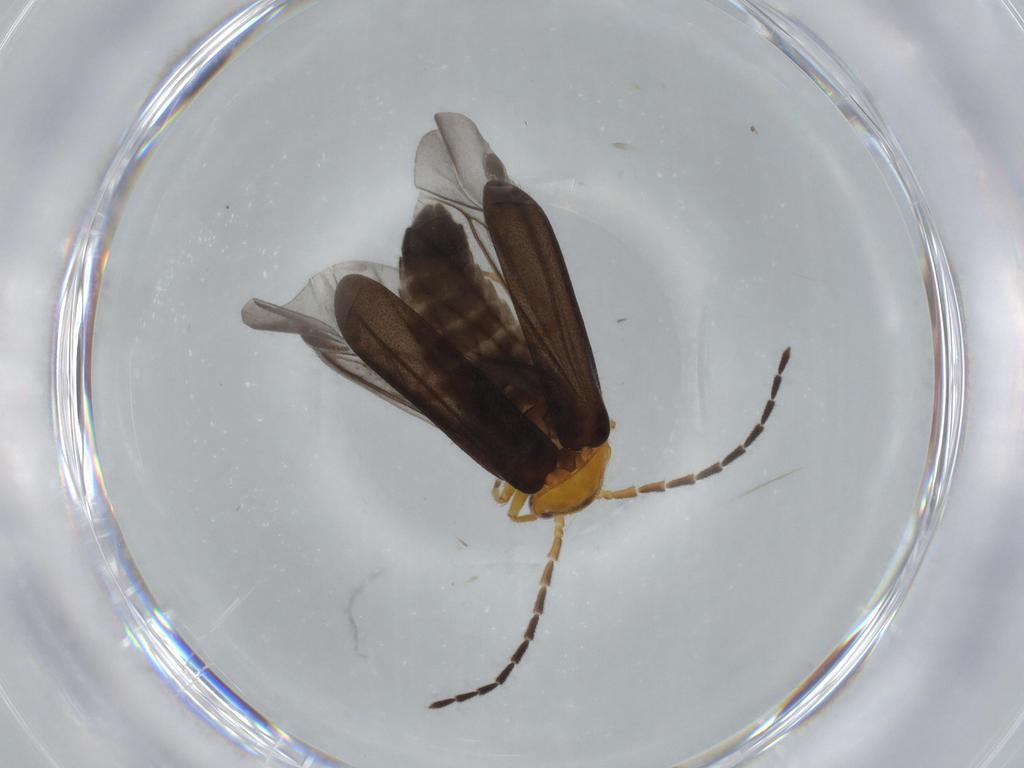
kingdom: Animalia
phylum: Arthropoda
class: Insecta
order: Coleoptera
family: Cantharidae
